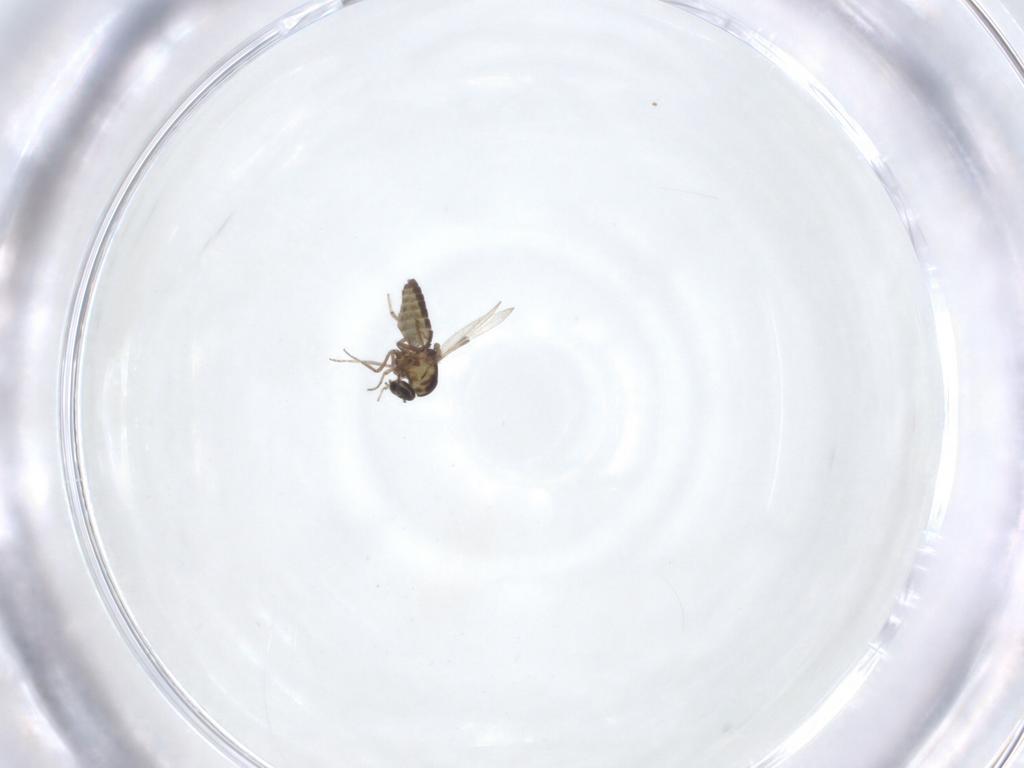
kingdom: Animalia
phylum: Arthropoda
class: Insecta
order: Diptera
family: Ceratopogonidae
